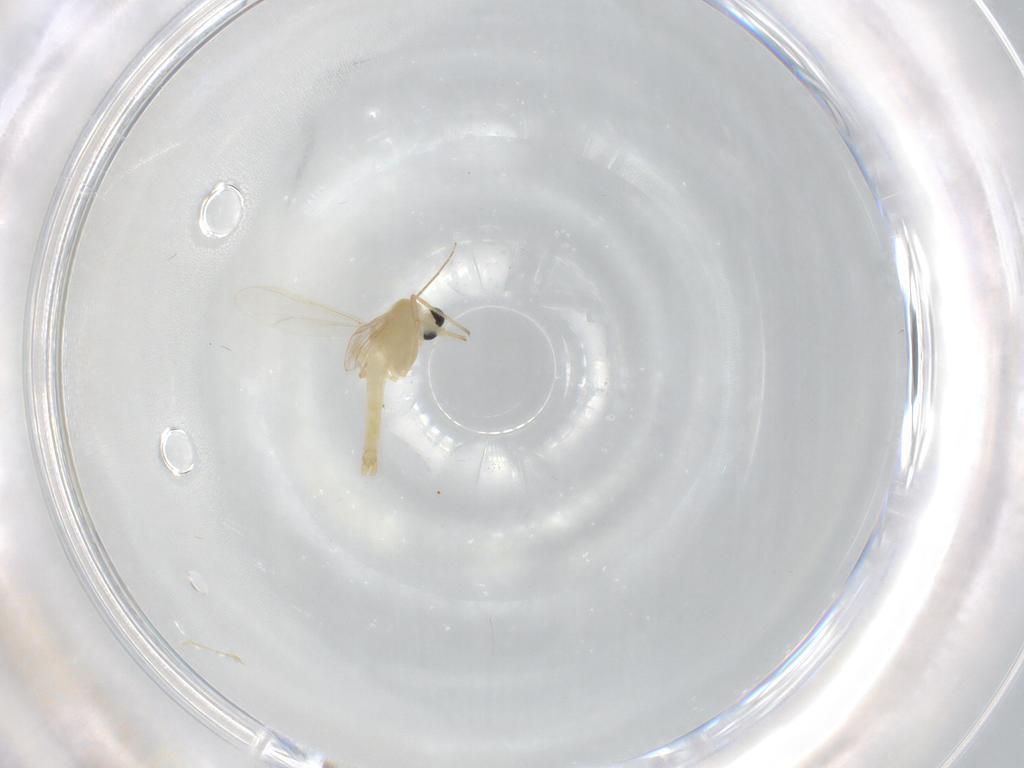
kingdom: Animalia
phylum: Arthropoda
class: Insecta
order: Diptera
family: Chironomidae
